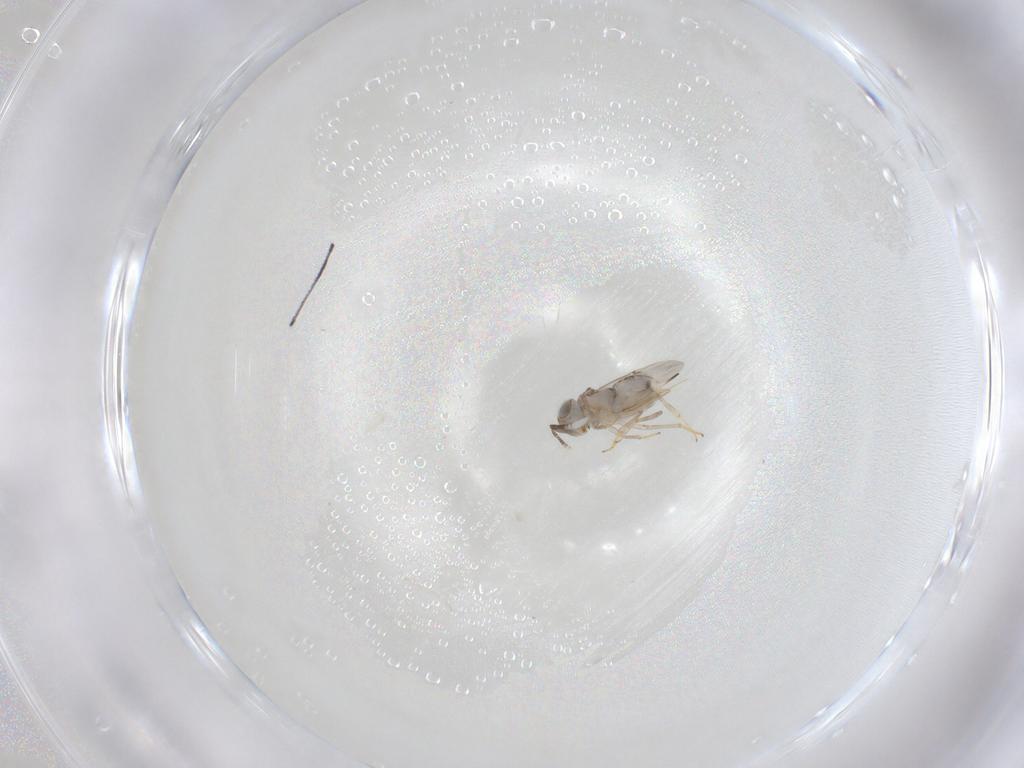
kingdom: Animalia
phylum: Arthropoda
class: Insecta
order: Hymenoptera
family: Encyrtidae
